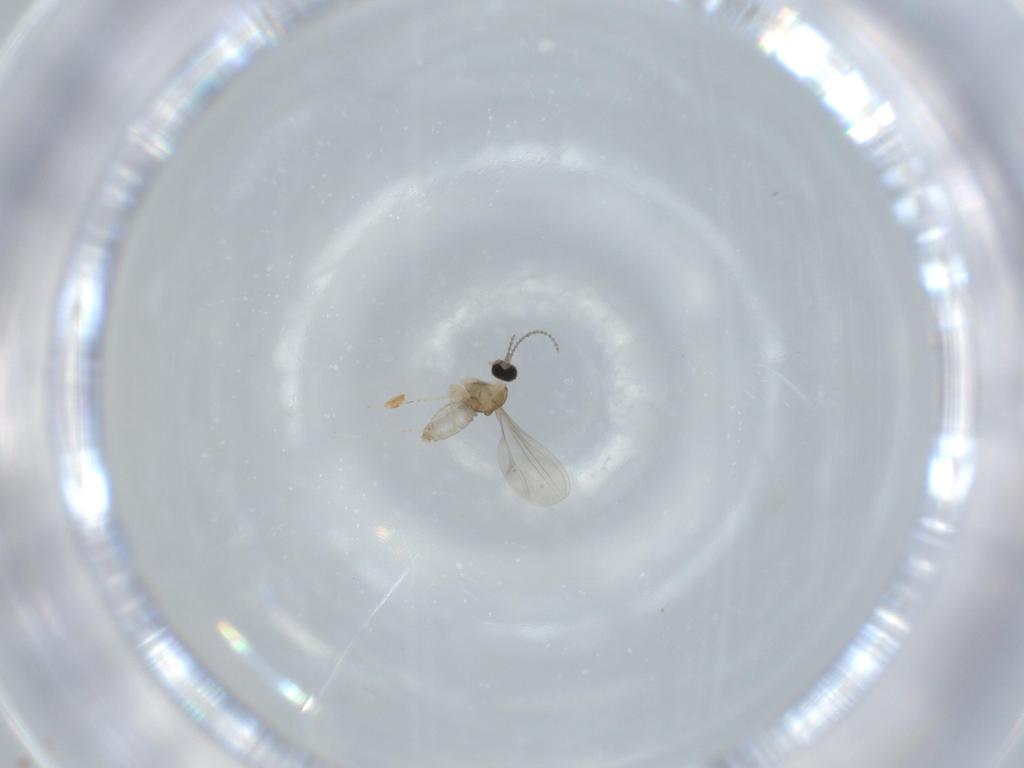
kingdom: Animalia
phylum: Arthropoda
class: Insecta
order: Diptera
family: Cecidomyiidae
